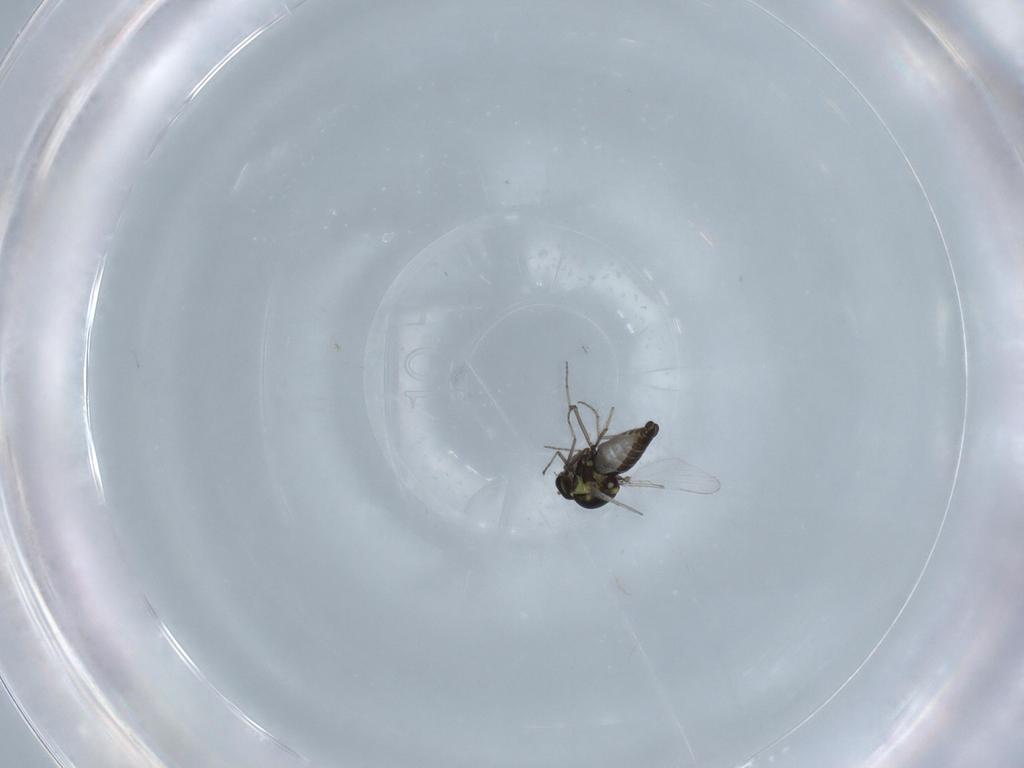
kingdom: Animalia
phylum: Arthropoda
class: Insecta
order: Diptera
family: Ceratopogonidae
